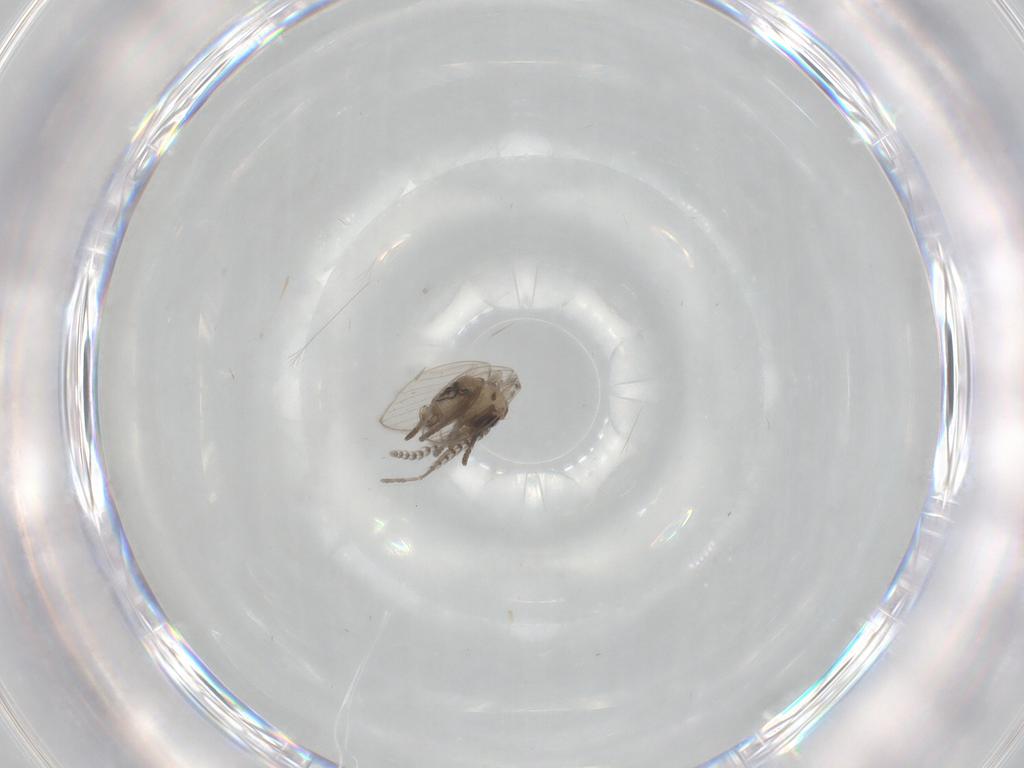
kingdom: Animalia
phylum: Arthropoda
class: Insecta
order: Diptera
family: Psychodidae
